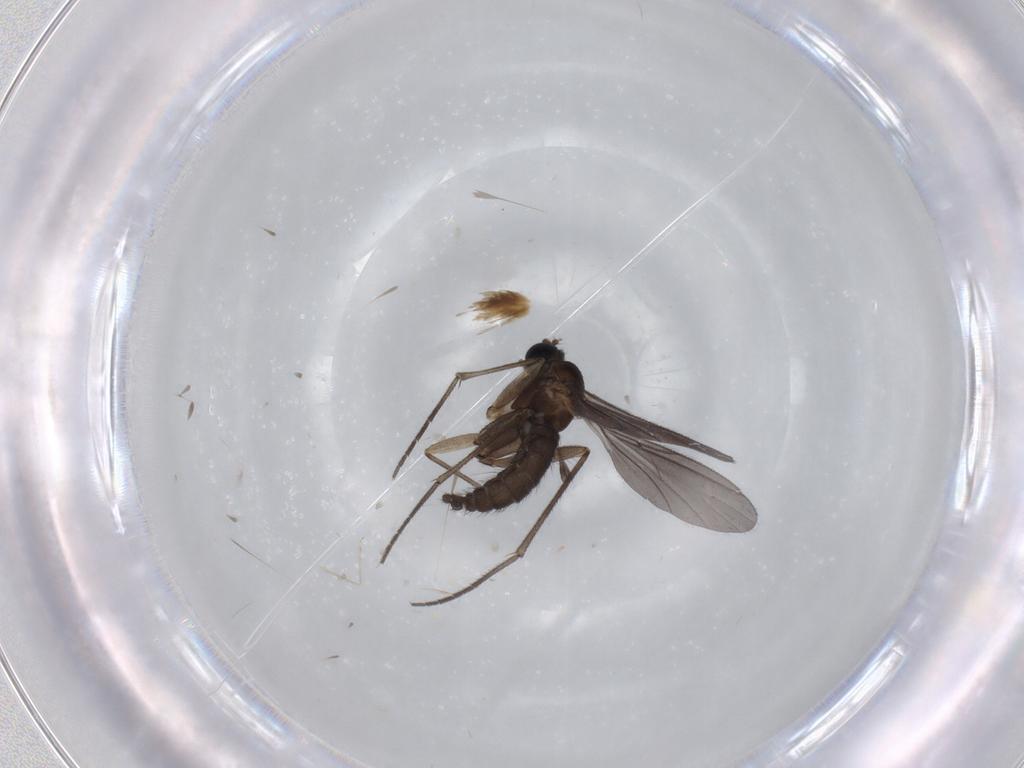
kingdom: Animalia
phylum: Arthropoda
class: Insecta
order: Diptera
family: Sciaridae
